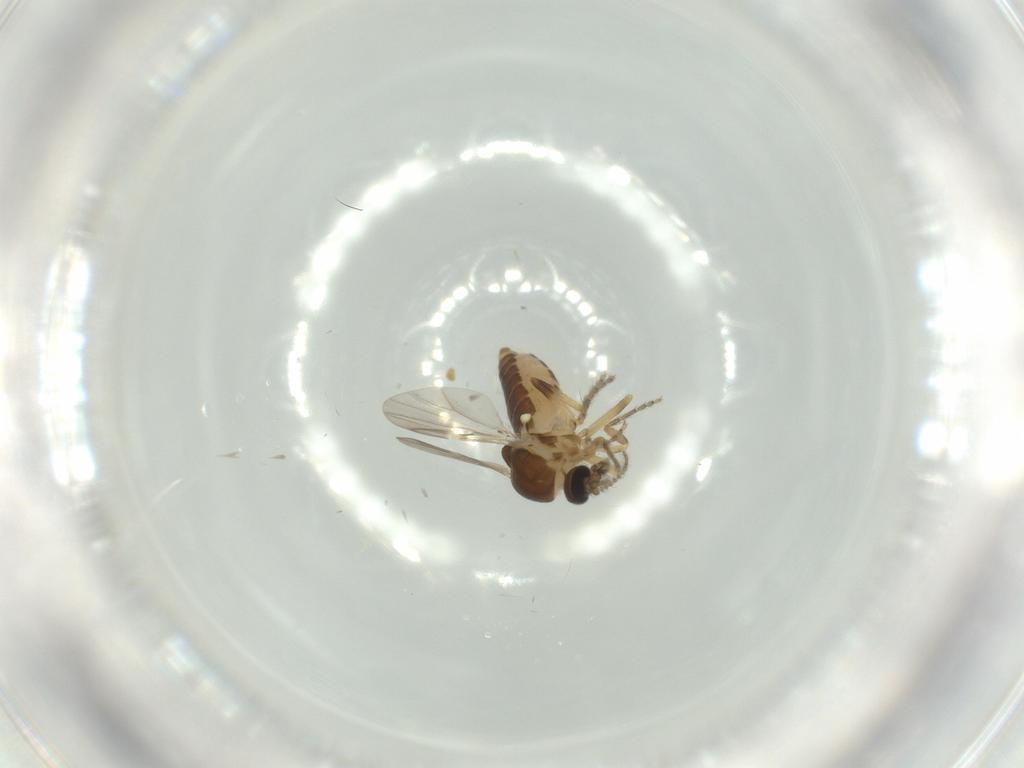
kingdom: Animalia
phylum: Arthropoda
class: Insecta
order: Diptera
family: Ceratopogonidae
